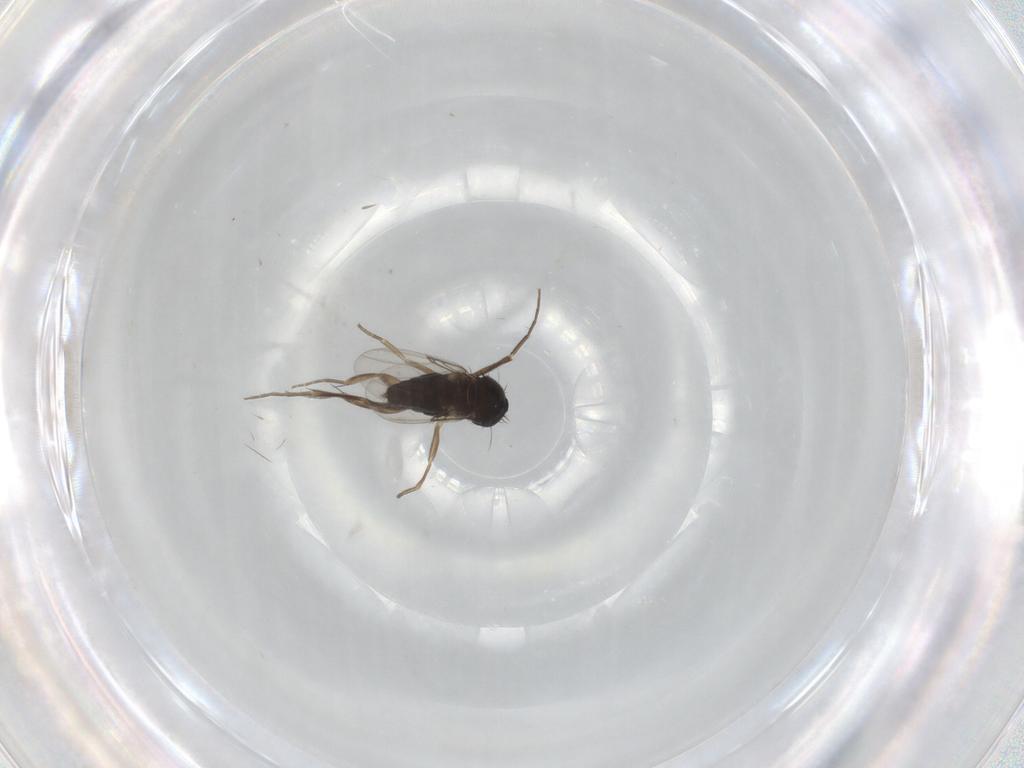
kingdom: Animalia
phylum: Arthropoda
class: Insecta
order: Diptera
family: Phoridae
